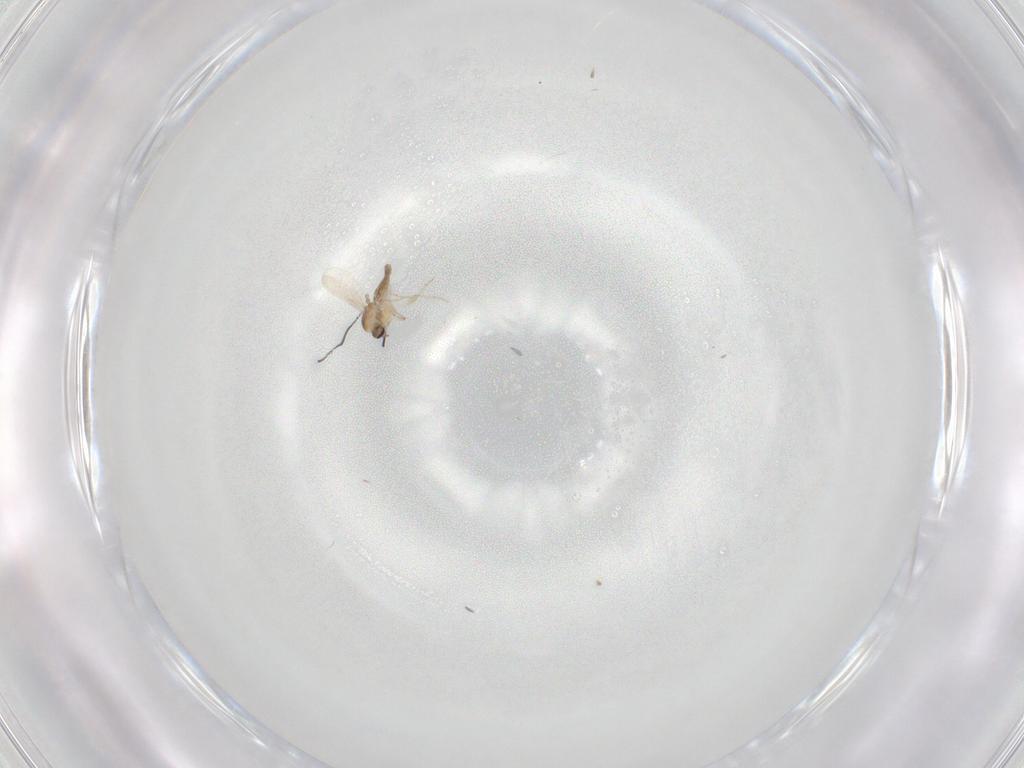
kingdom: Animalia
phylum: Arthropoda
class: Insecta
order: Diptera
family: Ceratopogonidae
